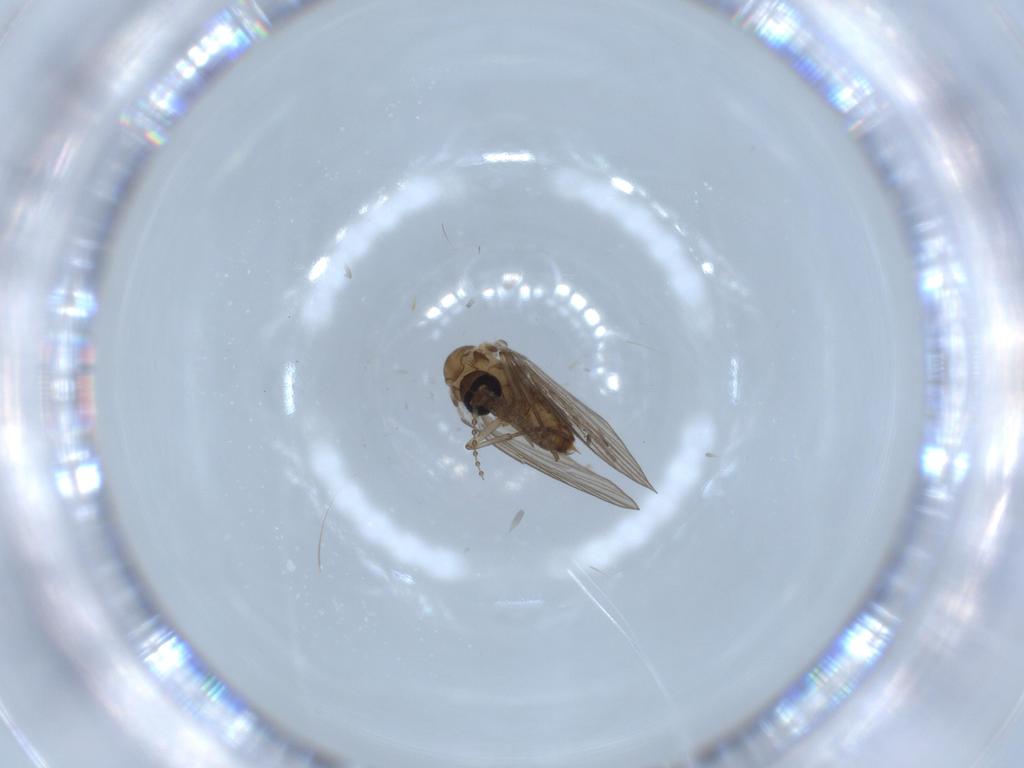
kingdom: Animalia
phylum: Arthropoda
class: Insecta
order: Diptera
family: Psychodidae
